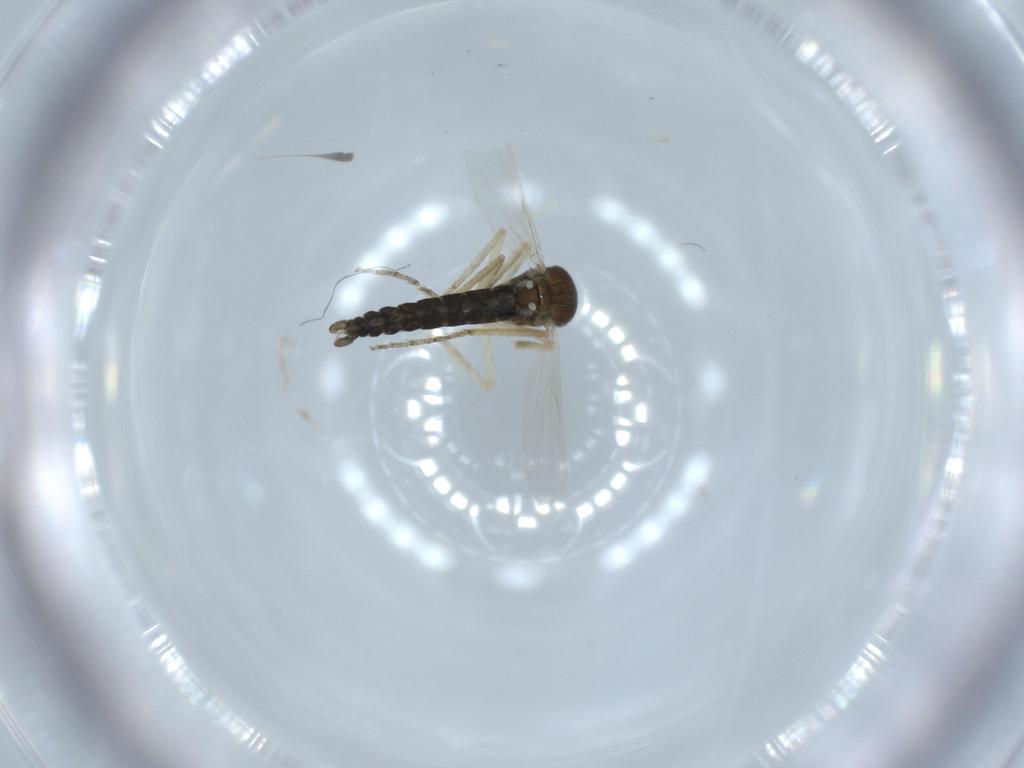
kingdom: Animalia
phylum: Arthropoda
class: Insecta
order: Diptera
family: Ceratopogonidae
